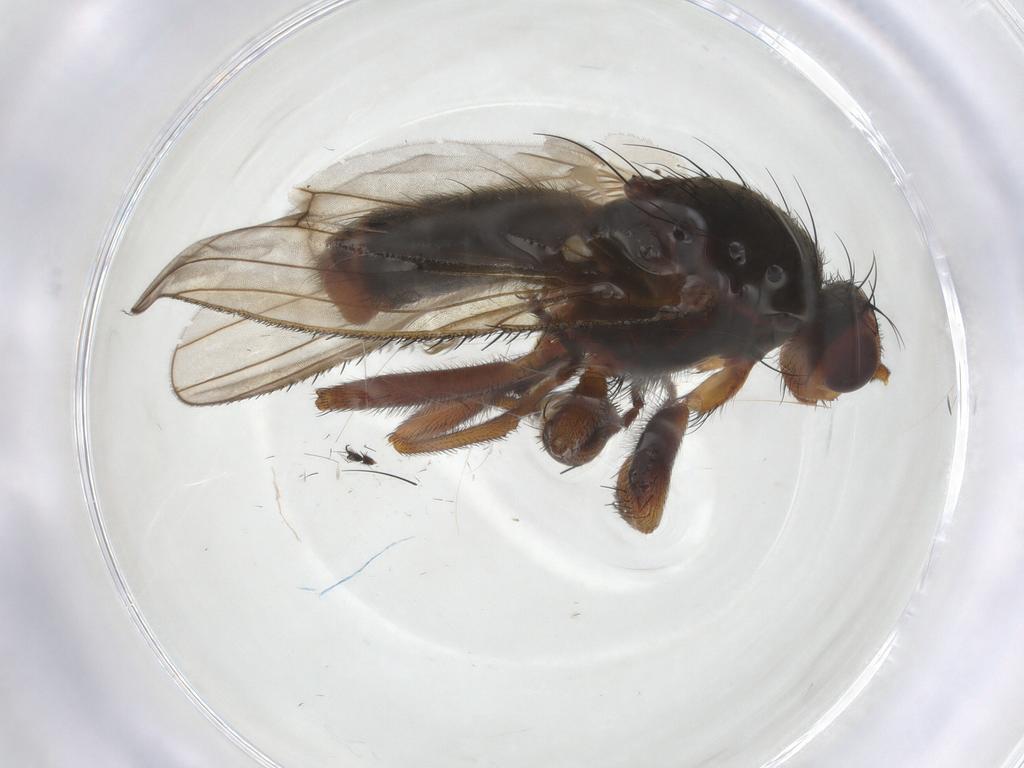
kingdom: Animalia
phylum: Arthropoda
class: Insecta
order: Diptera
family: Heleomyzidae
